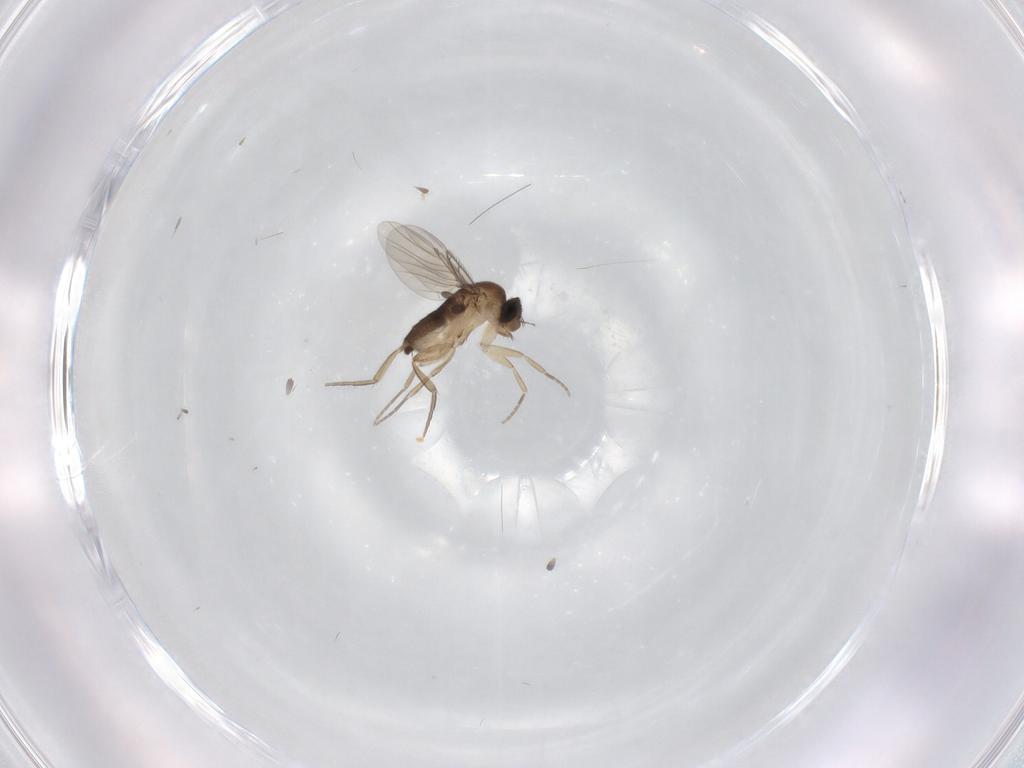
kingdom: Animalia
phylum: Arthropoda
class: Insecta
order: Diptera
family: Phoridae
